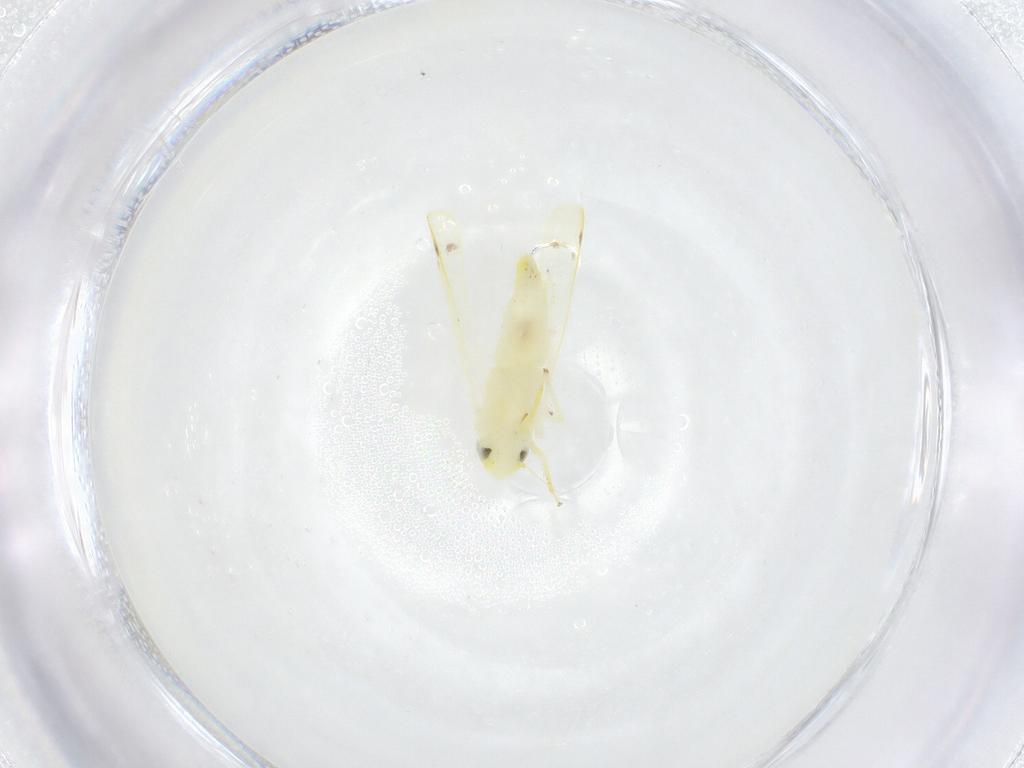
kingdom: Animalia
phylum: Arthropoda
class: Insecta
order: Hemiptera
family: Cicadellidae
